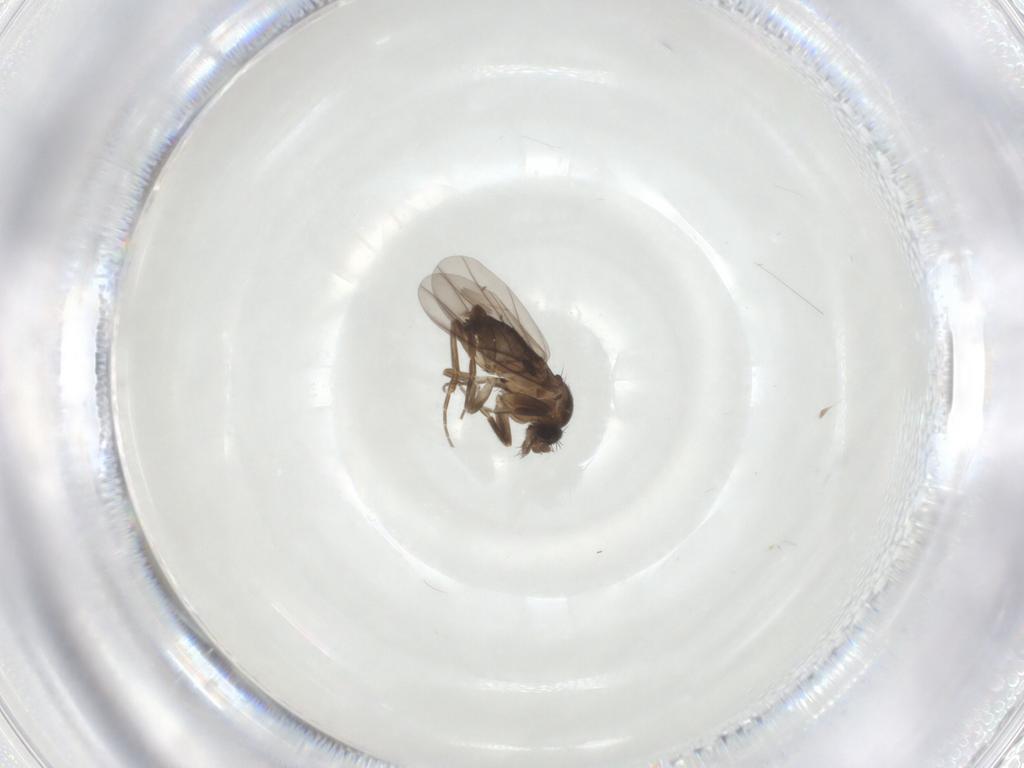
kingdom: Animalia
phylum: Arthropoda
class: Insecta
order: Diptera
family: Phoridae
